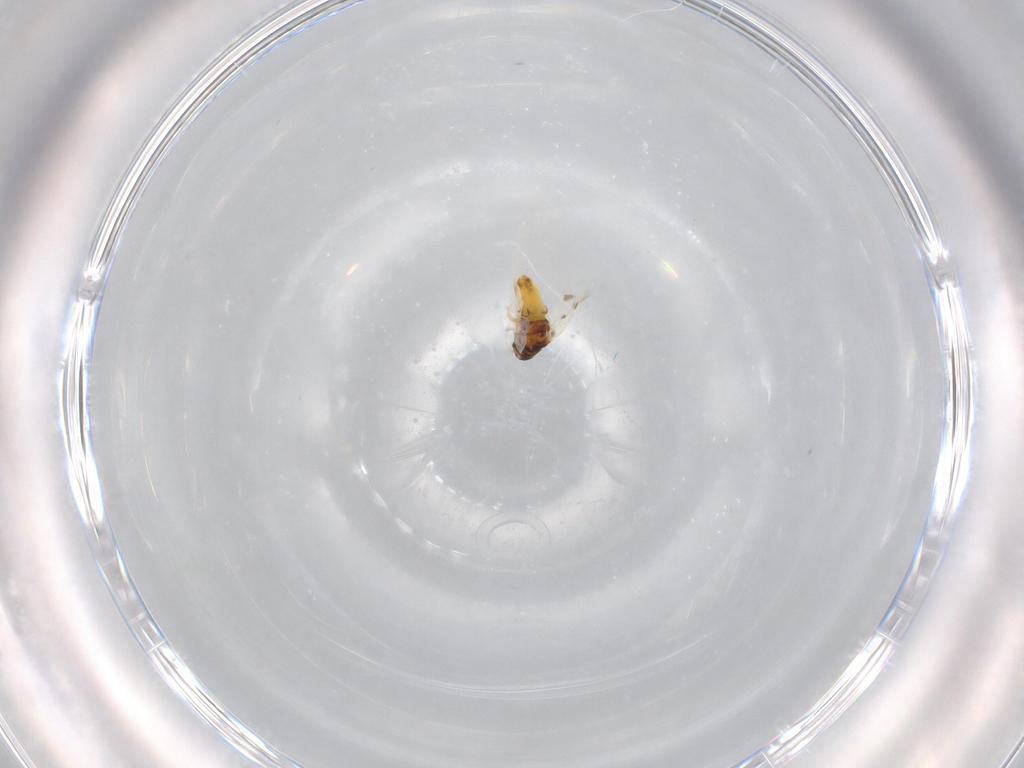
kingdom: Animalia
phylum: Arthropoda
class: Insecta
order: Hemiptera
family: Aleyrodidae
